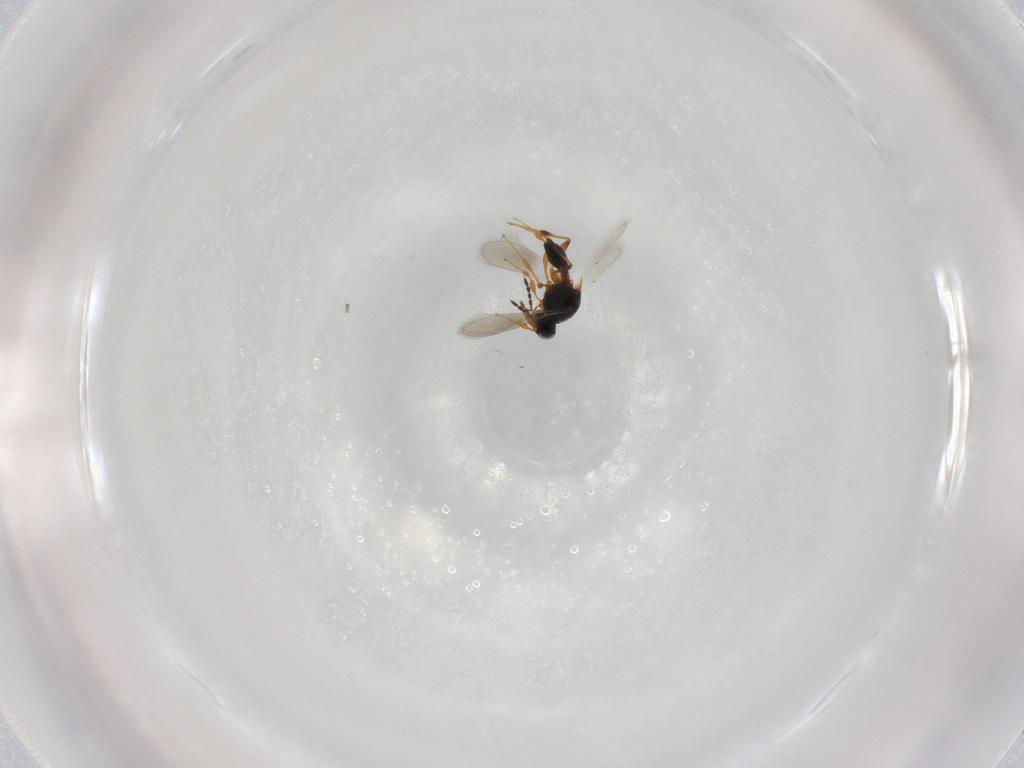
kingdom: Animalia
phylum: Arthropoda
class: Insecta
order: Hymenoptera
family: Platygastridae
